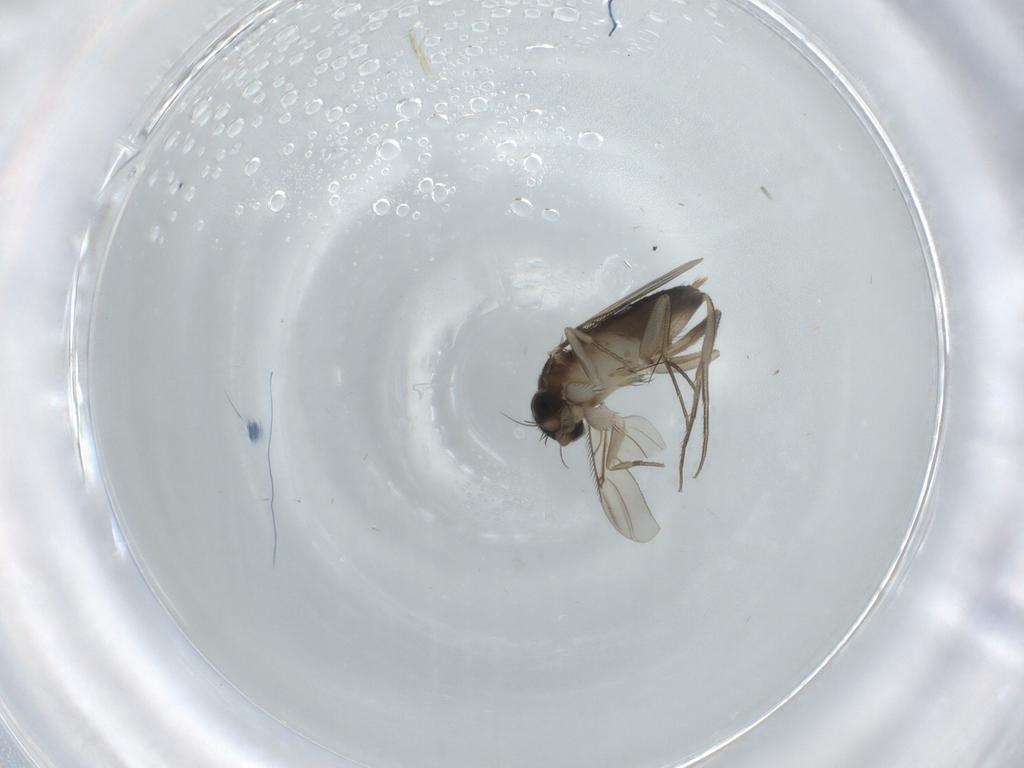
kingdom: Animalia
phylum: Arthropoda
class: Insecta
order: Diptera
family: Phoridae
